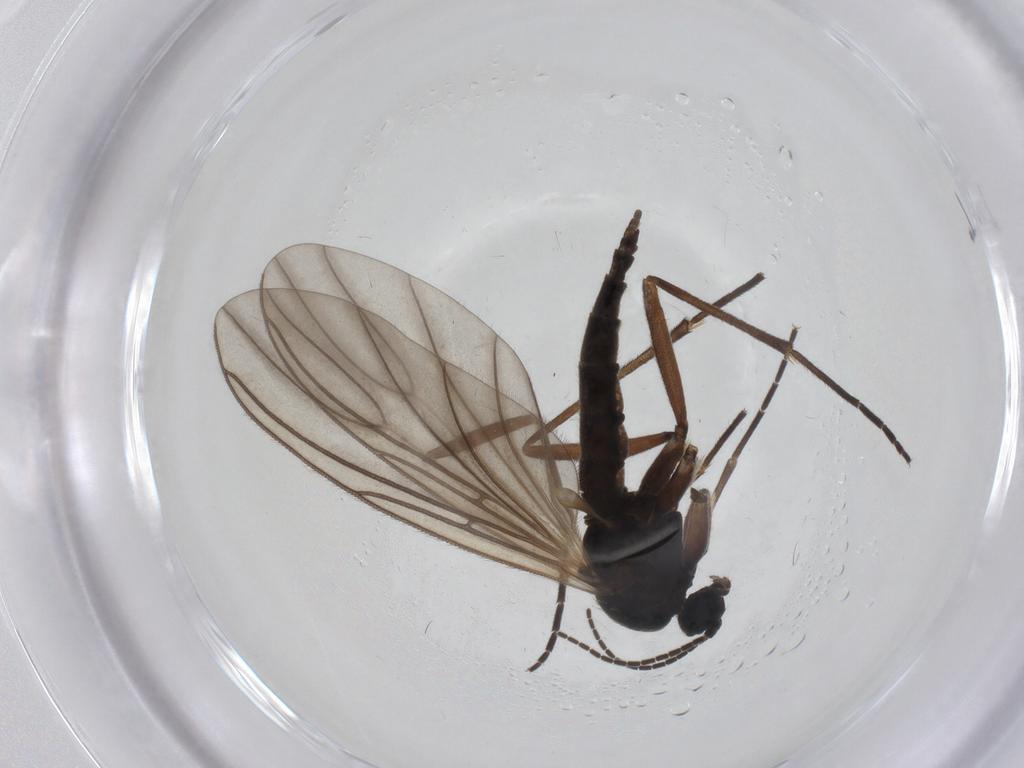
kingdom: Animalia
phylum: Arthropoda
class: Insecta
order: Diptera
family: Sciaridae
